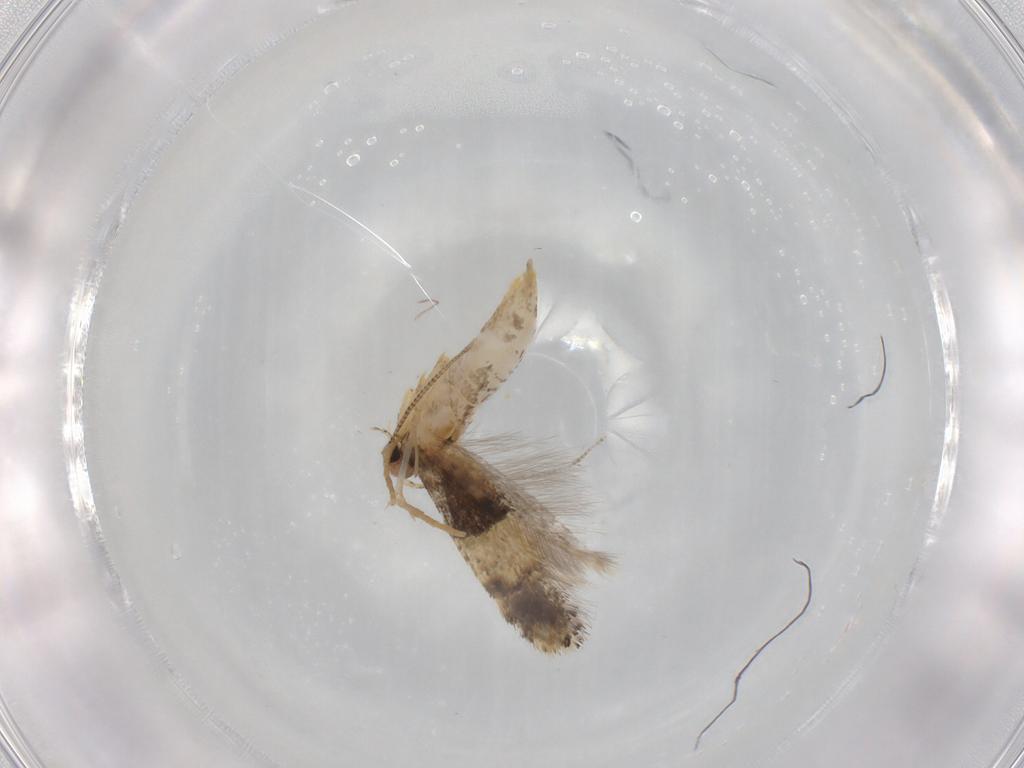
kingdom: Animalia
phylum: Arthropoda
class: Insecta
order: Lepidoptera
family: Tineidae
